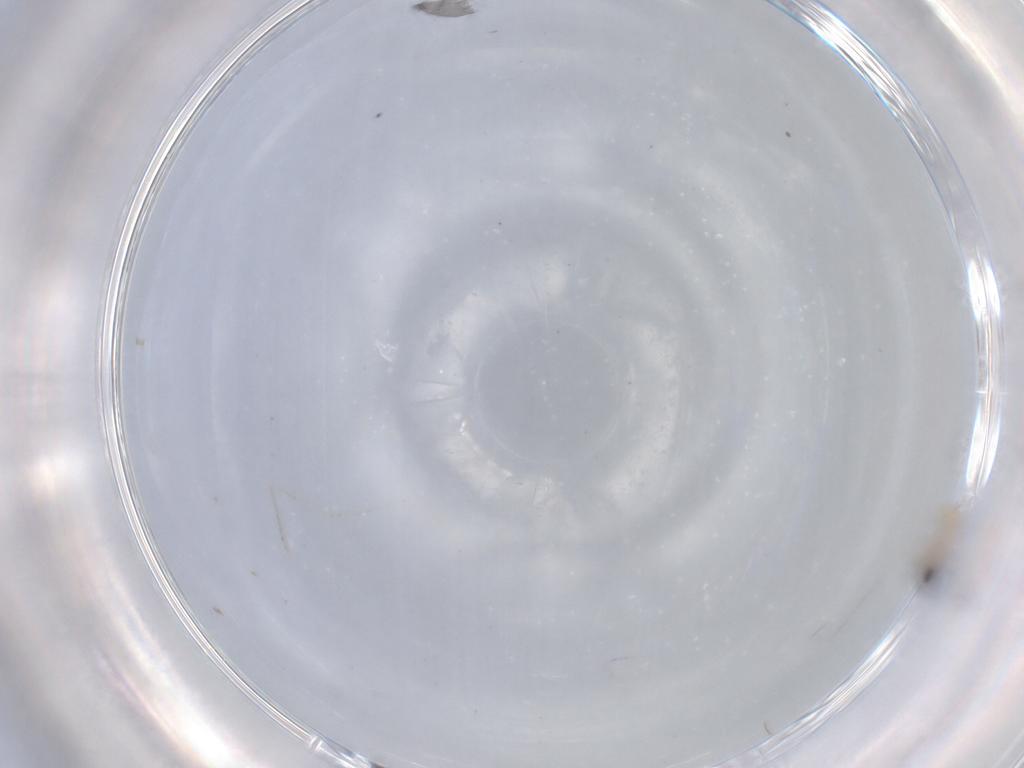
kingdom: Animalia
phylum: Arthropoda
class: Insecta
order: Diptera
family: Cecidomyiidae
